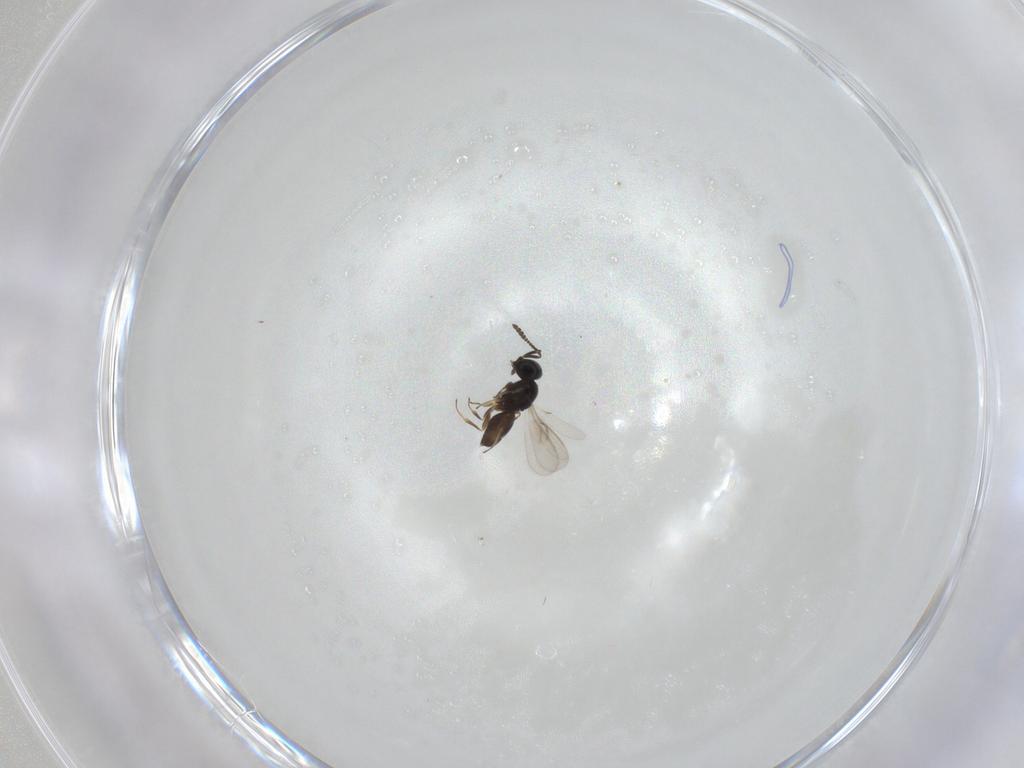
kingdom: Animalia
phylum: Arthropoda
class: Insecta
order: Hymenoptera
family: Scelionidae
